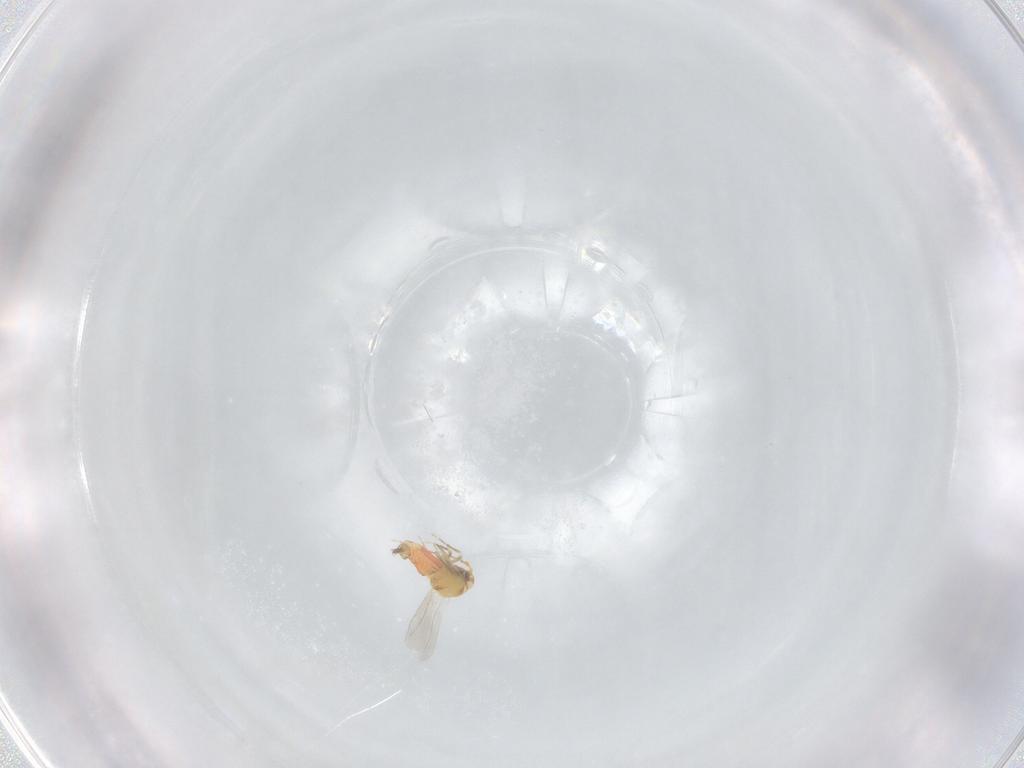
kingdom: Animalia
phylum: Arthropoda
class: Insecta
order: Hemiptera
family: Aleyrodidae
